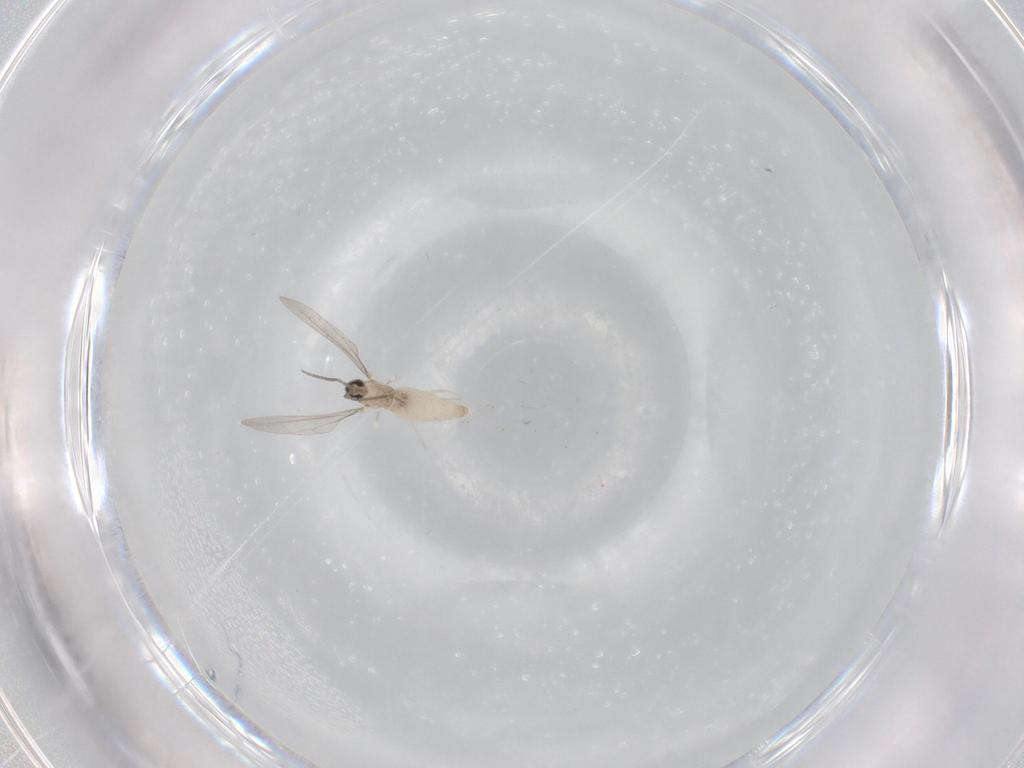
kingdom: Animalia
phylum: Arthropoda
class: Insecta
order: Diptera
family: Cecidomyiidae
